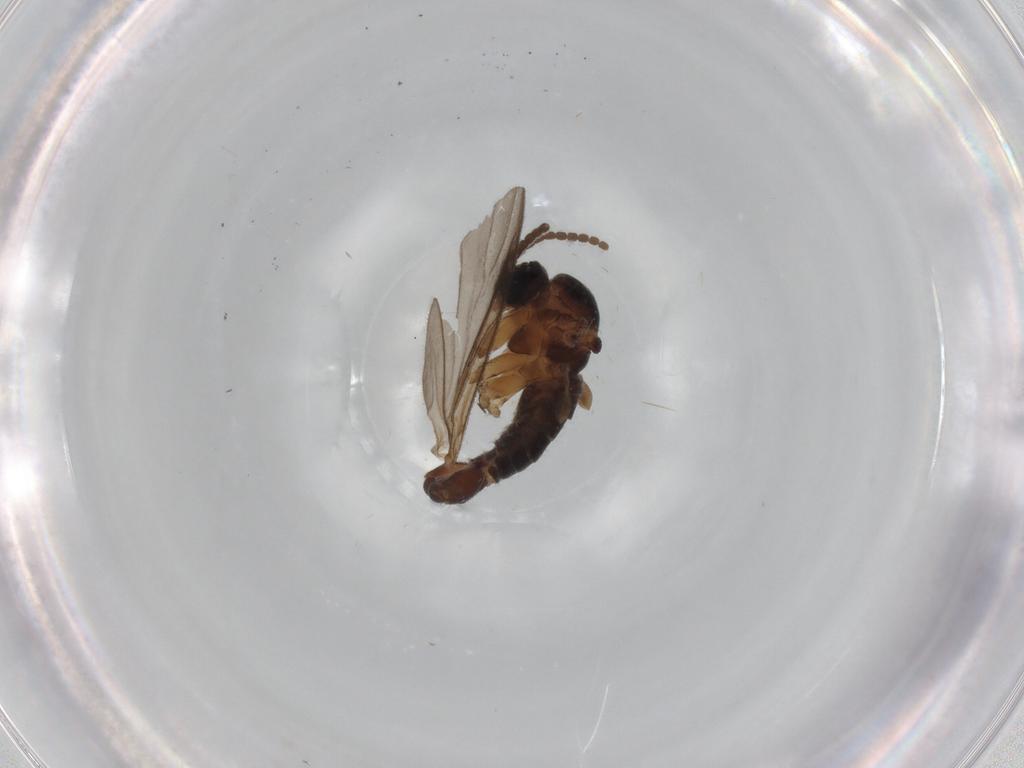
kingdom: Animalia
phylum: Arthropoda
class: Insecta
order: Diptera
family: Sciaridae
